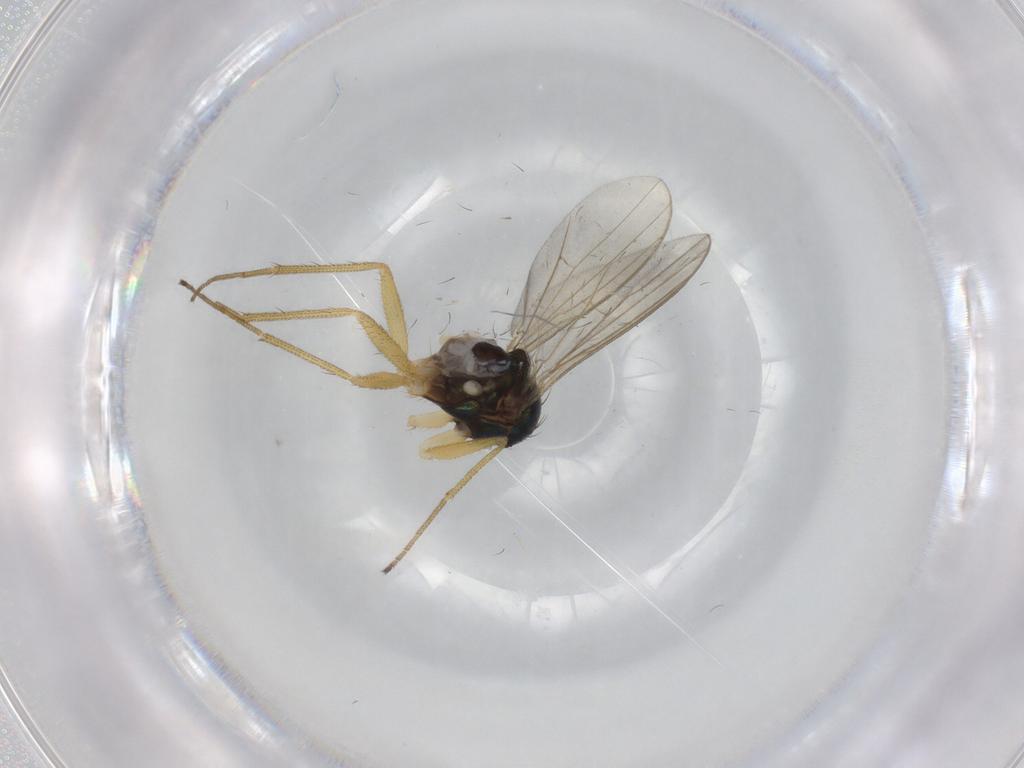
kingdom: Animalia
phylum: Arthropoda
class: Insecta
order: Diptera
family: Dolichopodidae
